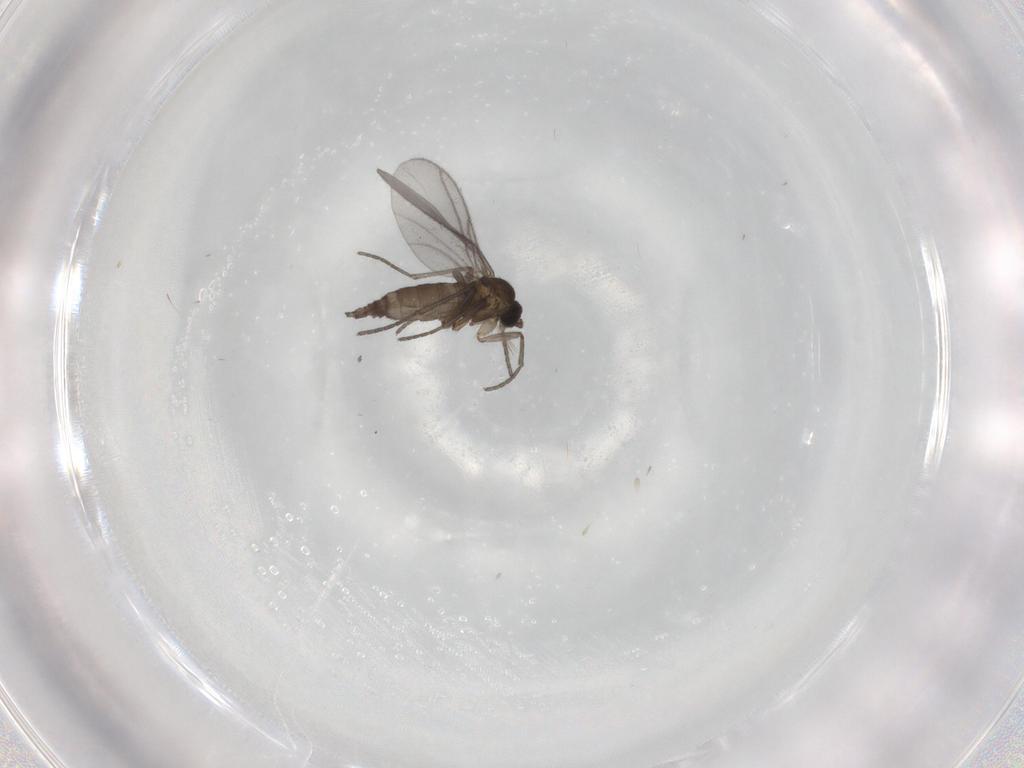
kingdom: Animalia
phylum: Arthropoda
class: Insecta
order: Diptera
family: Sciaridae
